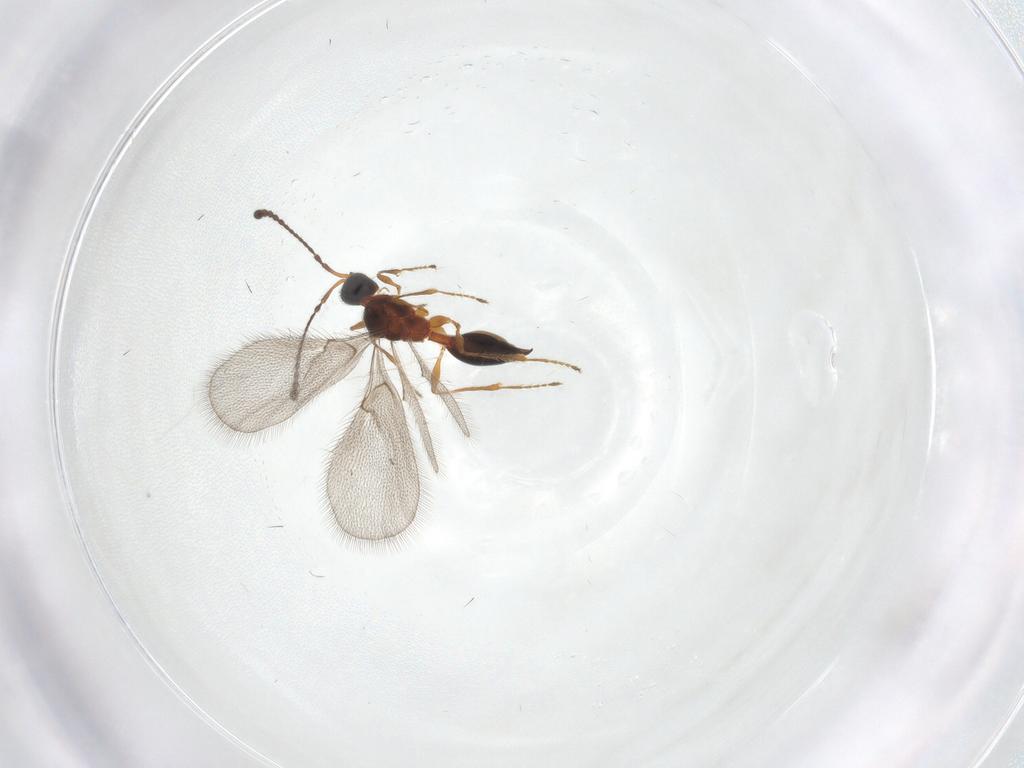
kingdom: Animalia
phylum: Arthropoda
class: Insecta
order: Hymenoptera
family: Diapriidae
